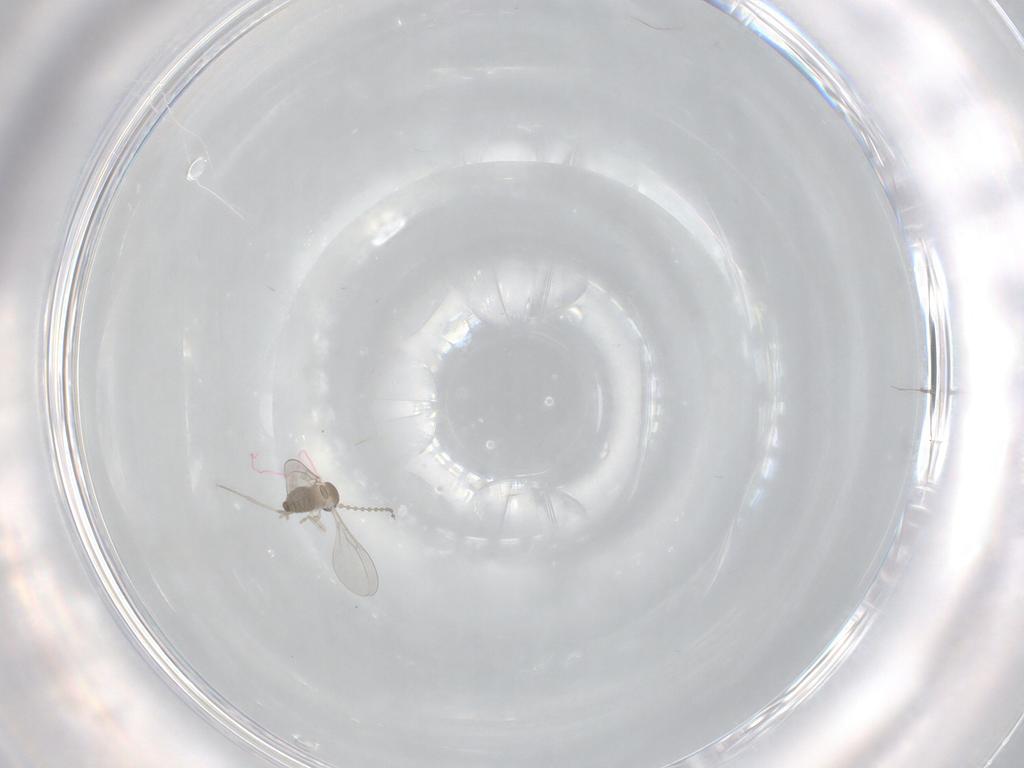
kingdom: Animalia
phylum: Arthropoda
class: Insecta
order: Diptera
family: Cecidomyiidae
